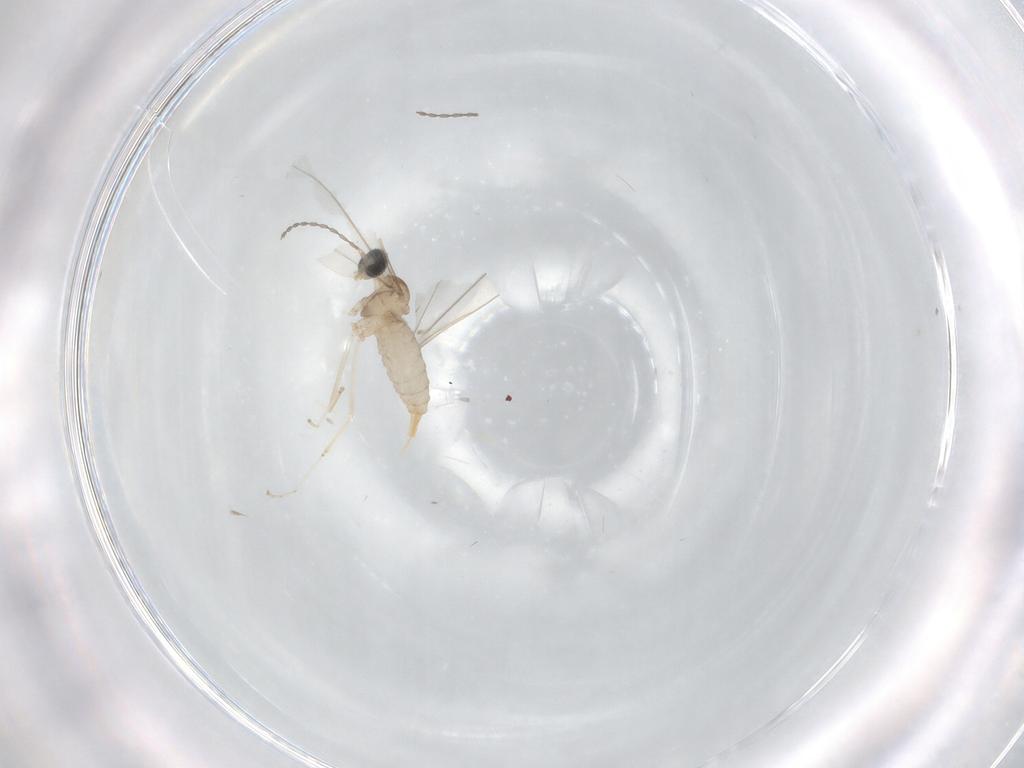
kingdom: Animalia
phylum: Arthropoda
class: Insecta
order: Diptera
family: Cecidomyiidae
